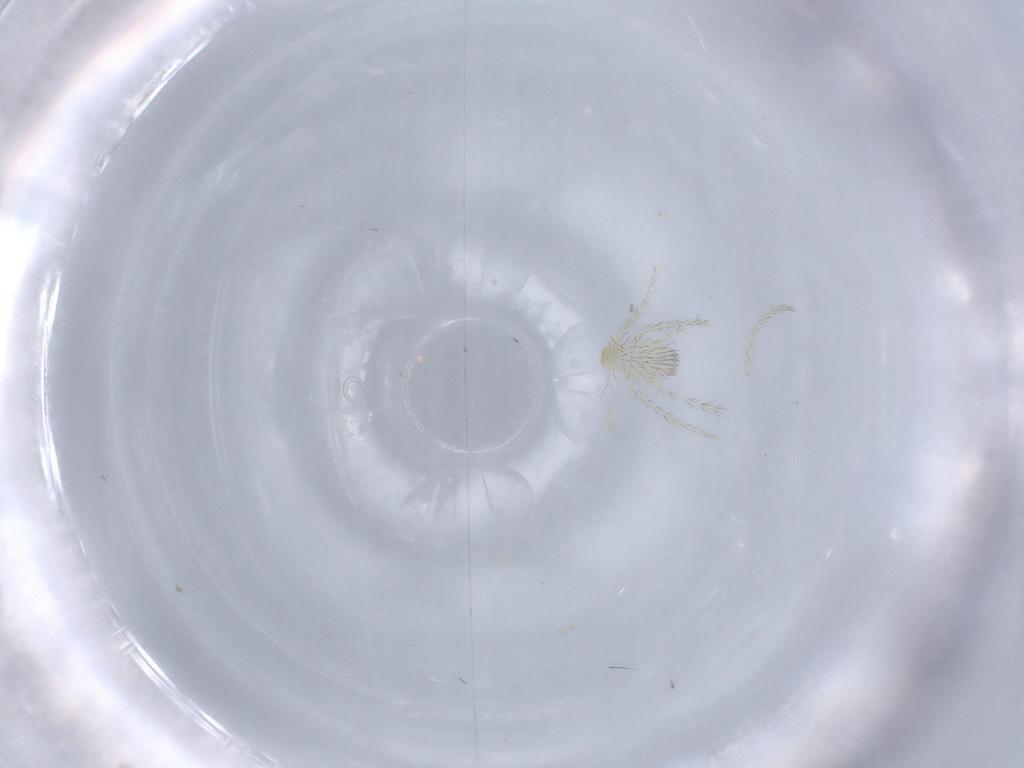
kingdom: Animalia
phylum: Arthropoda
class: Arachnida
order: Trombidiformes
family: Erythraeidae
